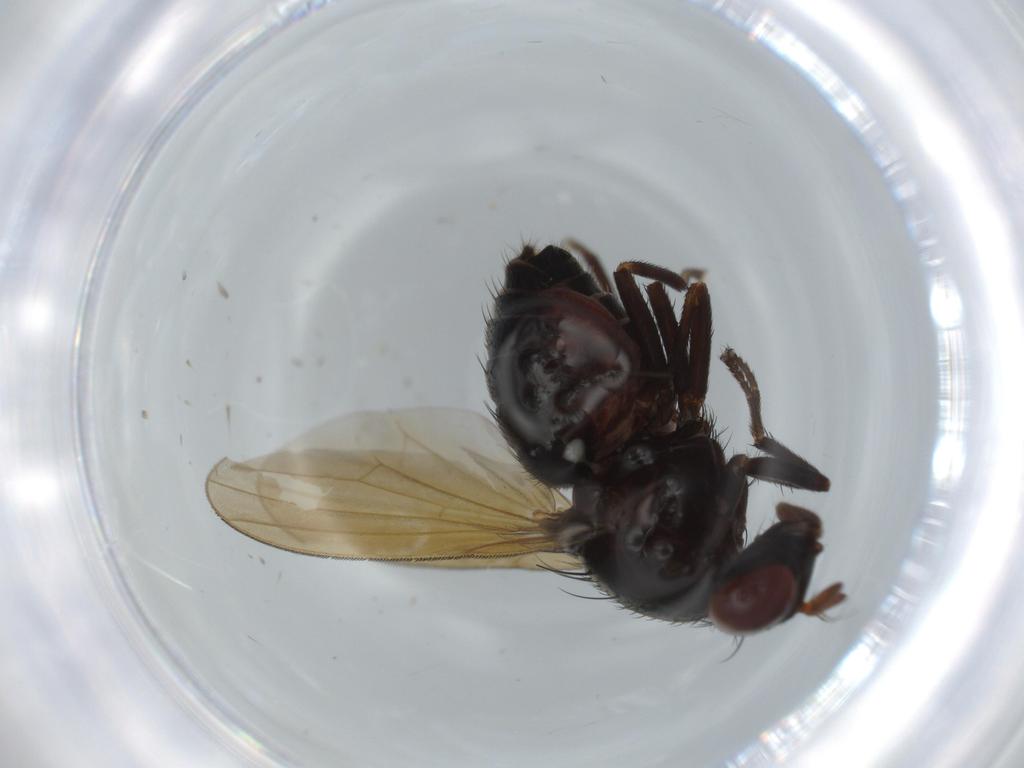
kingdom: Animalia
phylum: Arthropoda
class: Insecta
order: Diptera
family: Lauxaniidae
